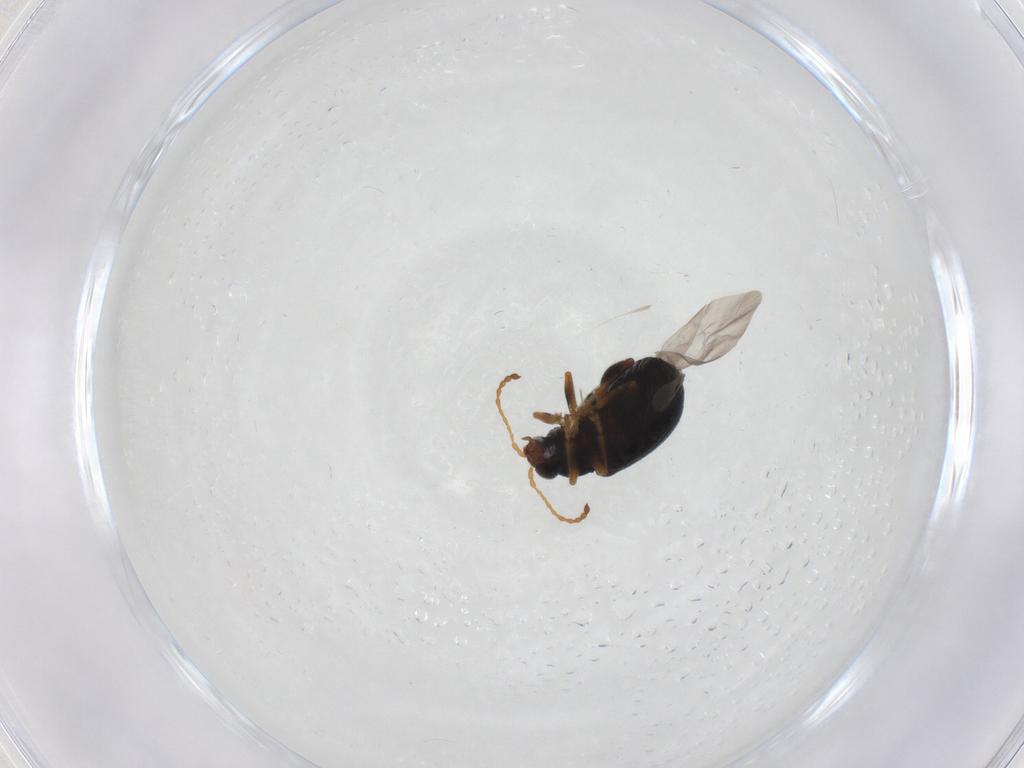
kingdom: Animalia
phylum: Arthropoda
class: Insecta
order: Coleoptera
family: Chrysomelidae
